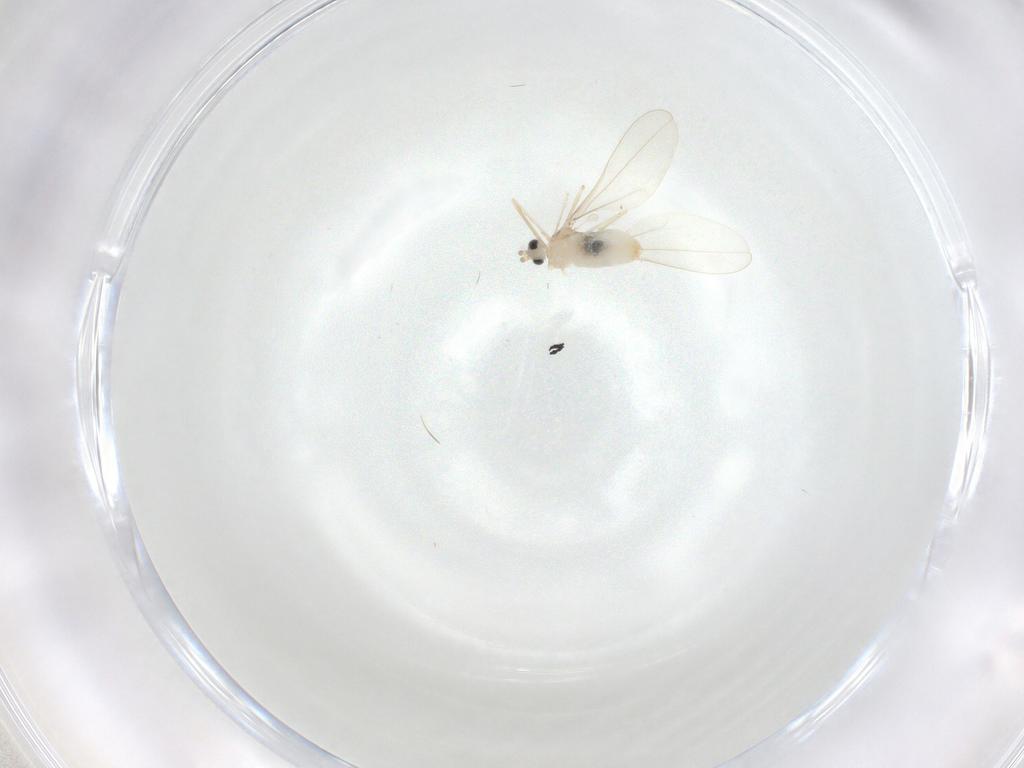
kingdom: Animalia
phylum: Arthropoda
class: Insecta
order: Diptera
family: Cecidomyiidae
